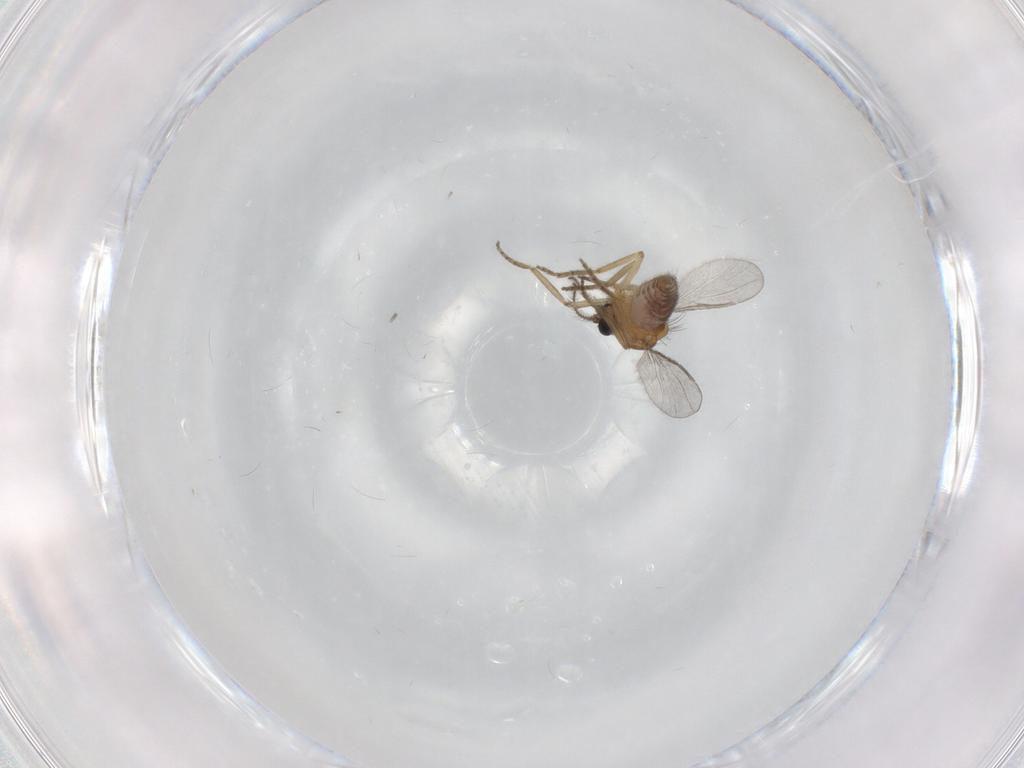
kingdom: Animalia
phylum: Arthropoda
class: Insecta
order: Diptera
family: Ceratopogonidae
